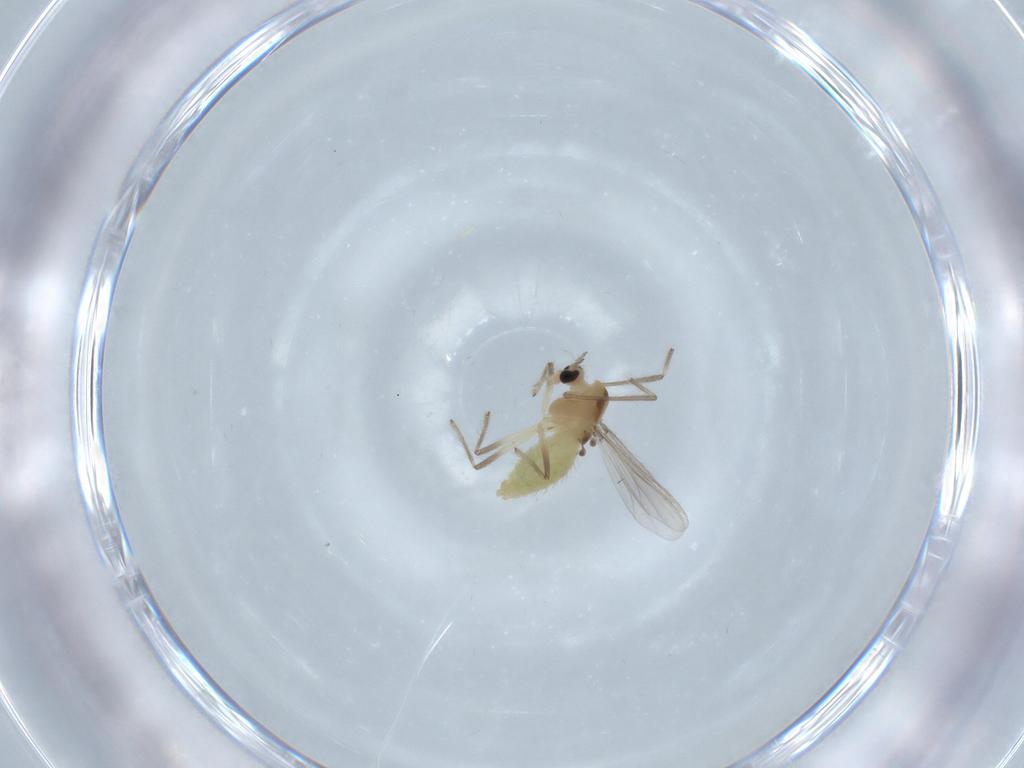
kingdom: Animalia
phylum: Arthropoda
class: Insecta
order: Diptera
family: Chironomidae
